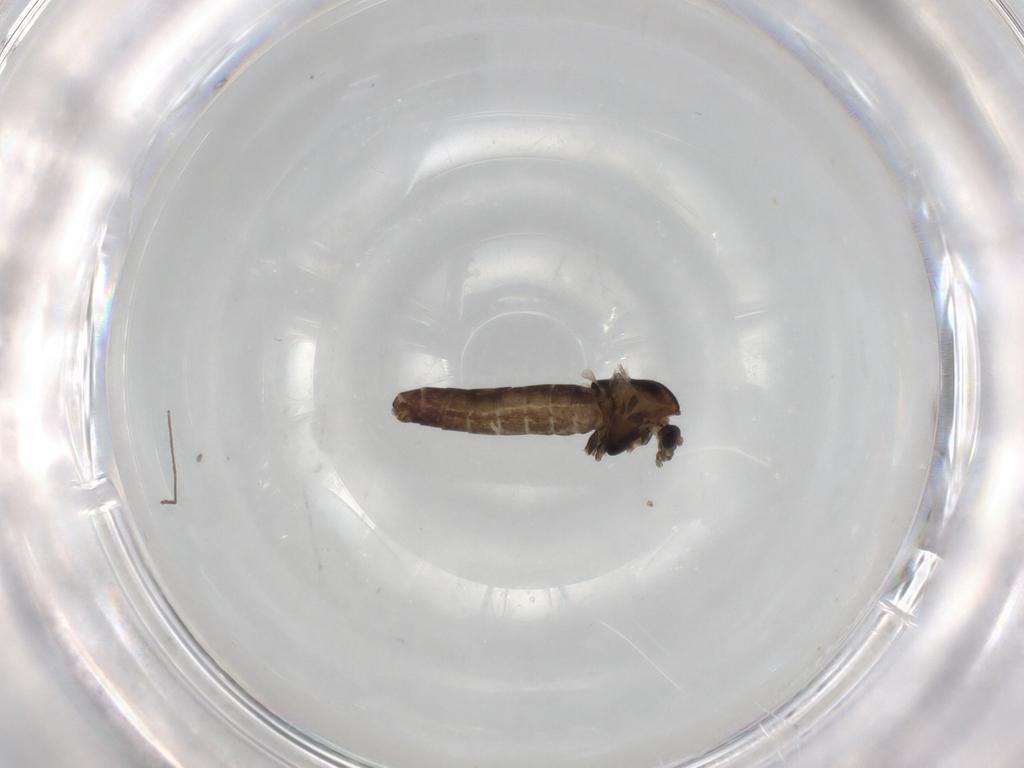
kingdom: Animalia
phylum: Arthropoda
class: Insecta
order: Diptera
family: Chironomidae
